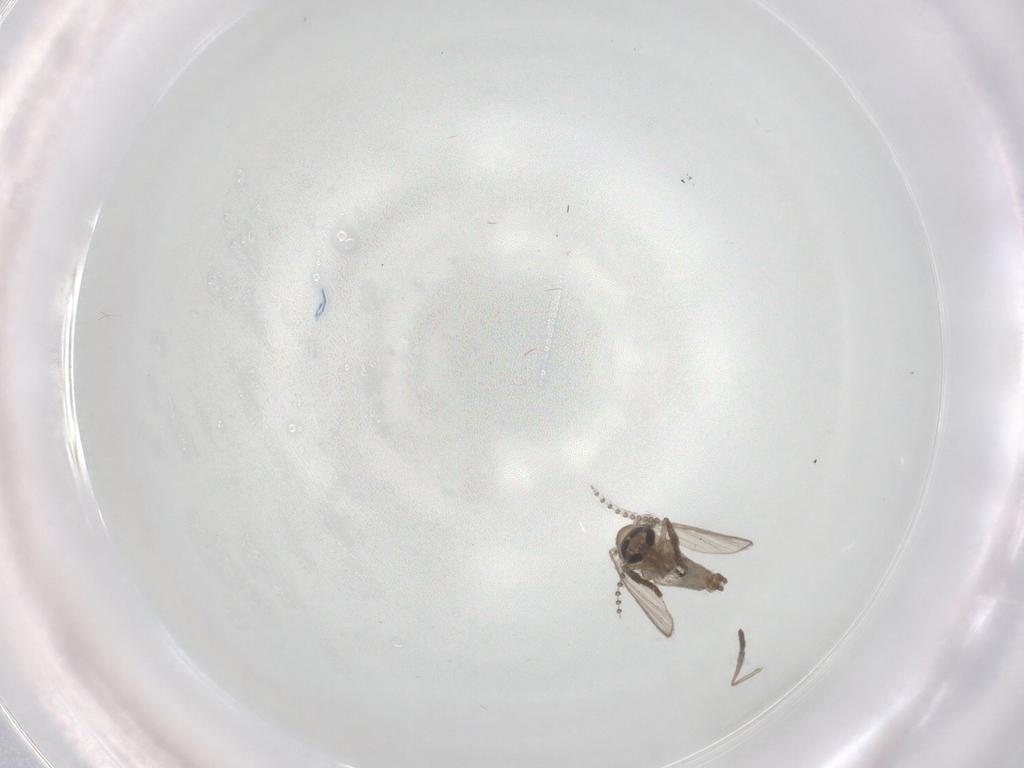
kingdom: Animalia
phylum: Arthropoda
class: Insecta
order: Diptera
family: Psychodidae
